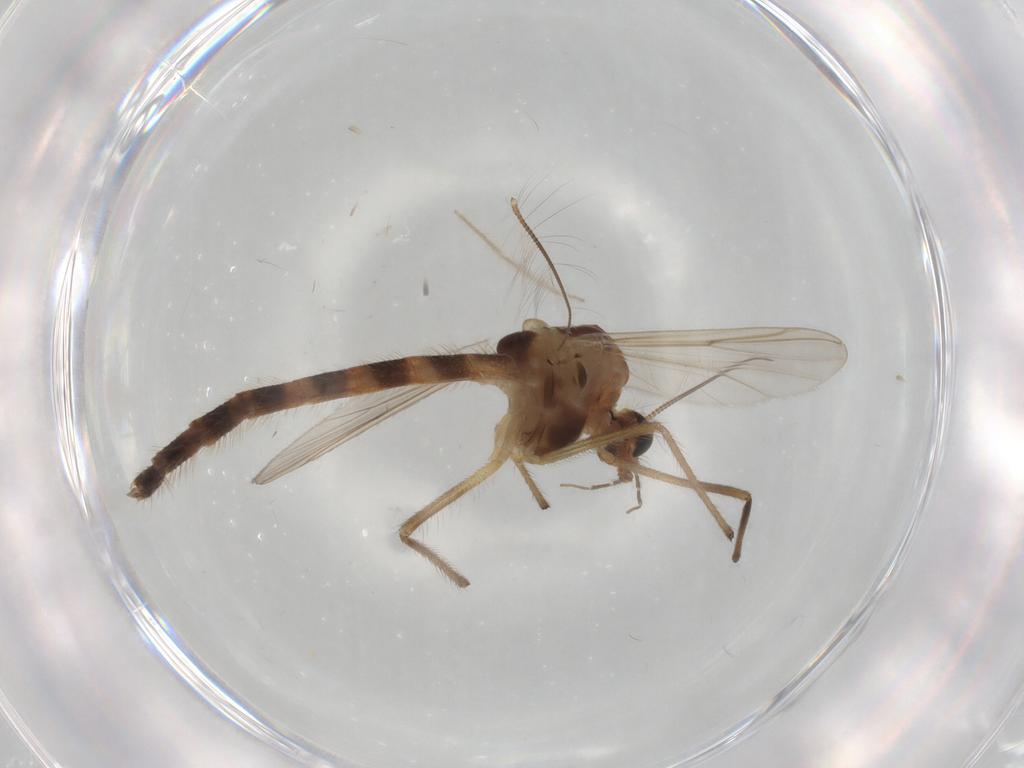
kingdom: Animalia
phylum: Arthropoda
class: Insecta
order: Diptera
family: Chironomidae
